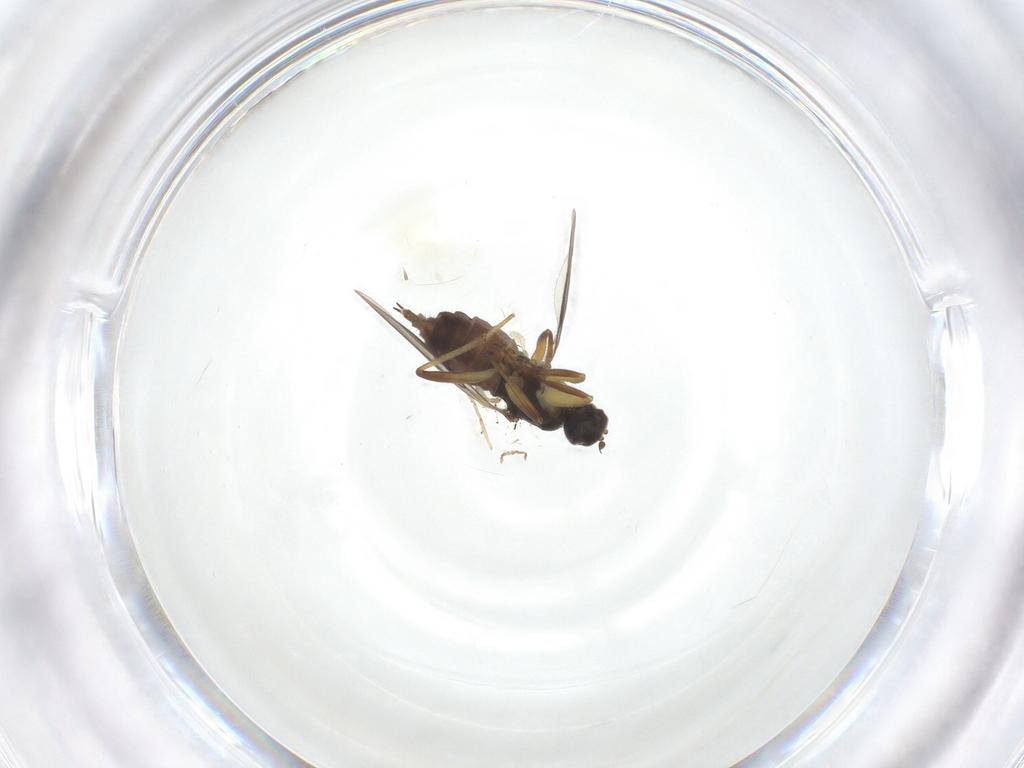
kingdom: Animalia
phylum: Arthropoda
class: Insecta
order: Diptera
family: Hybotidae
